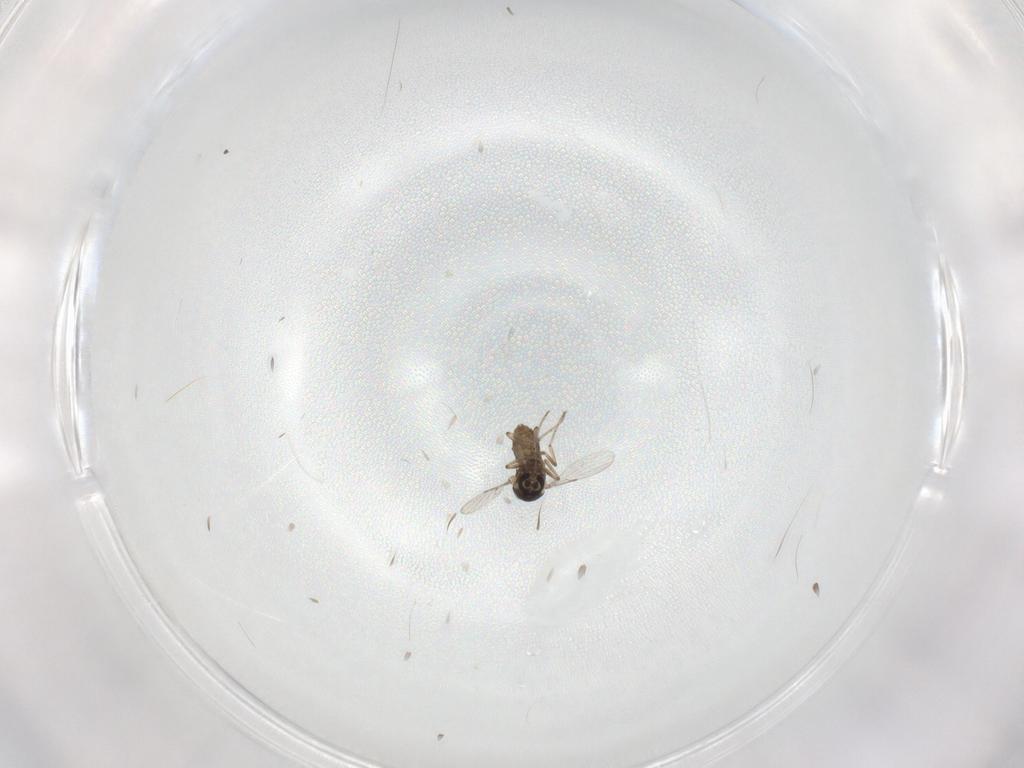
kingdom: Animalia
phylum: Arthropoda
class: Insecta
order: Diptera
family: Ceratopogonidae
